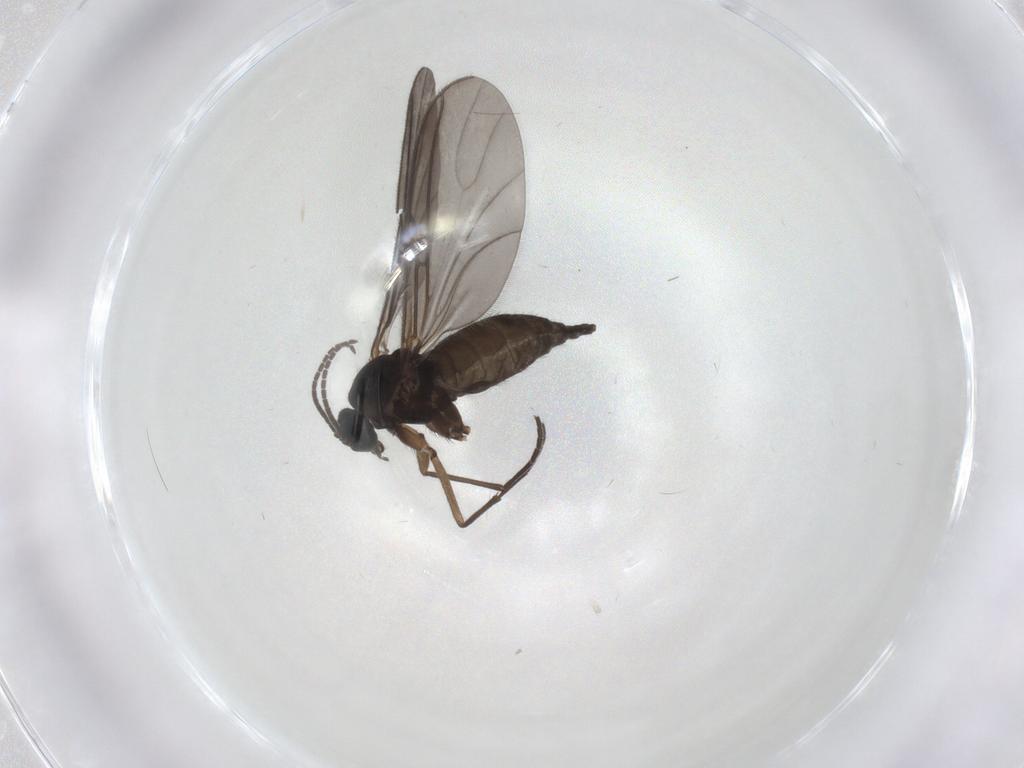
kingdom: Animalia
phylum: Arthropoda
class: Insecta
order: Diptera
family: Sciaridae
